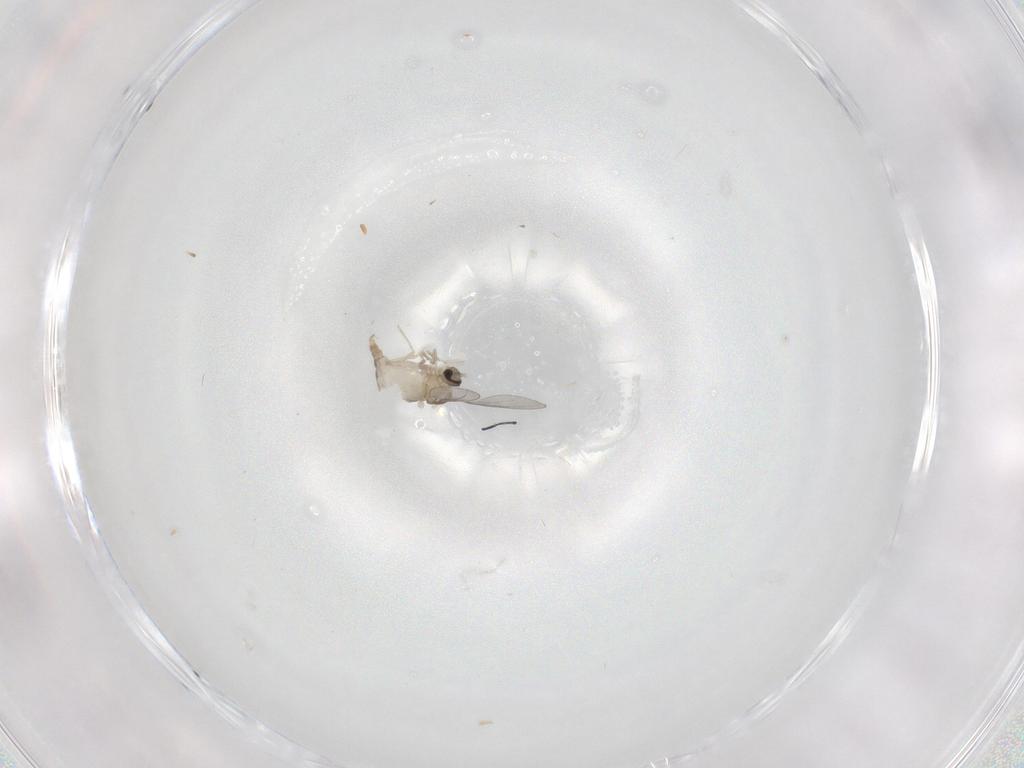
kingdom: Animalia
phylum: Arthropoda
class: Insecta
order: Diptera
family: Cecidomyiidae
